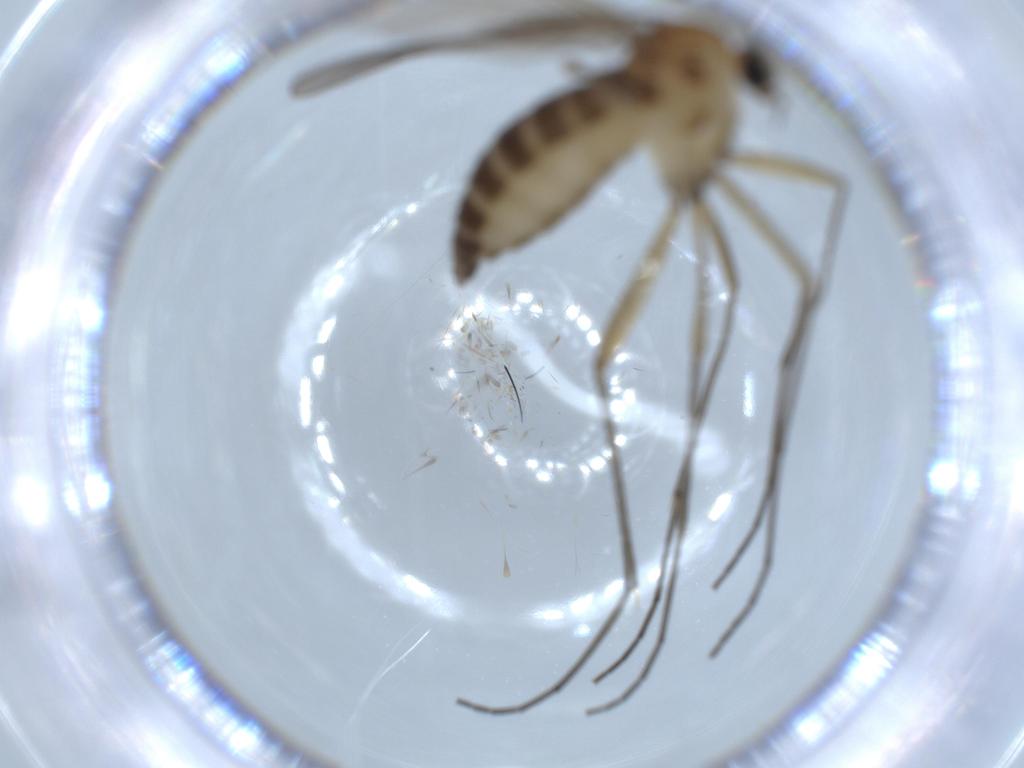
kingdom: Animalia
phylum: Arthropoda
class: Insecta
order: Diptera
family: Sciaridae
